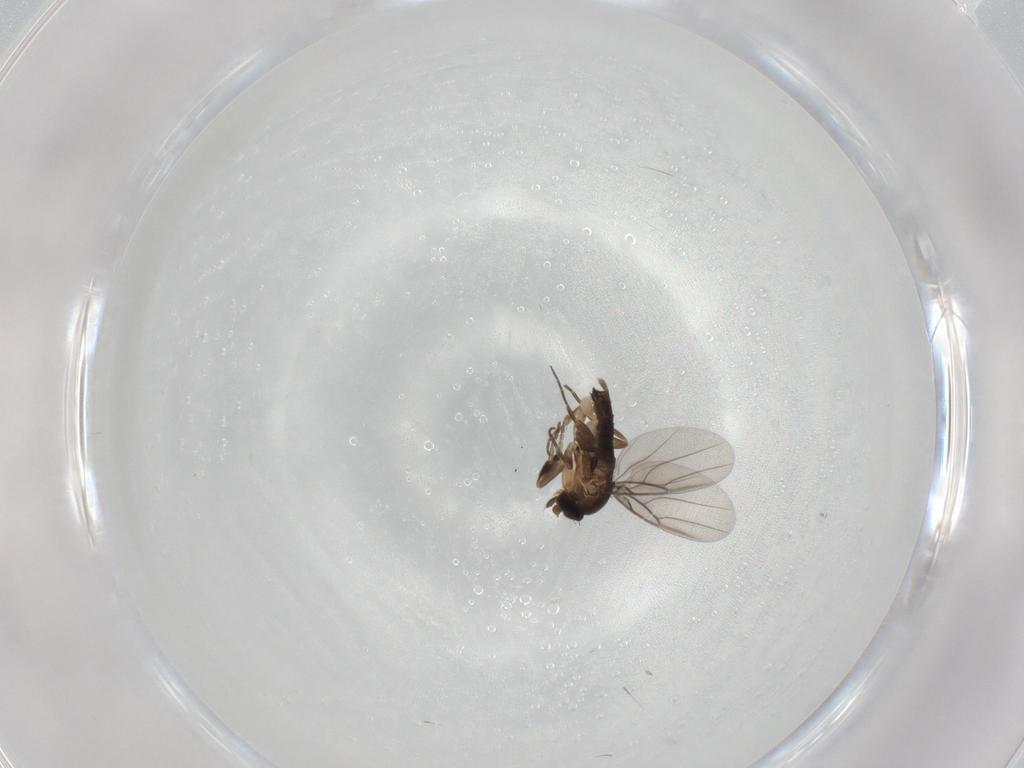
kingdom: Animalia
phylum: Arthropoda
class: Insecta
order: Diptera
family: Phoridae
